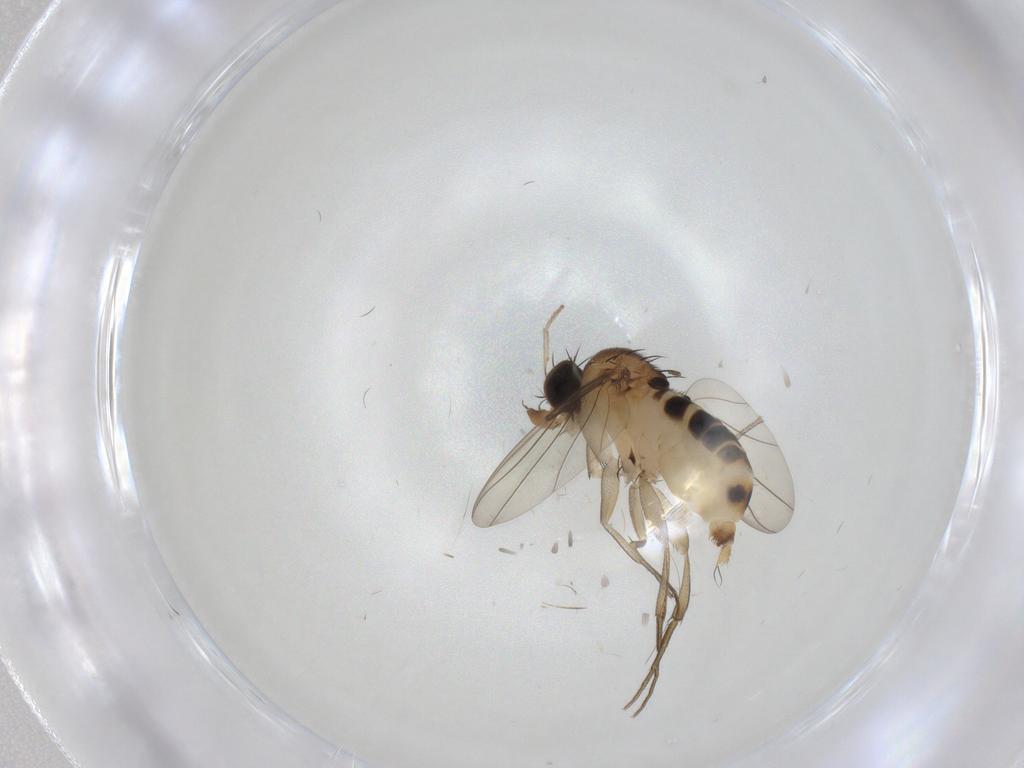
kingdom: Animalia
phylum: Arthropoda
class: Insecta
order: Diptera
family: Phoridae
